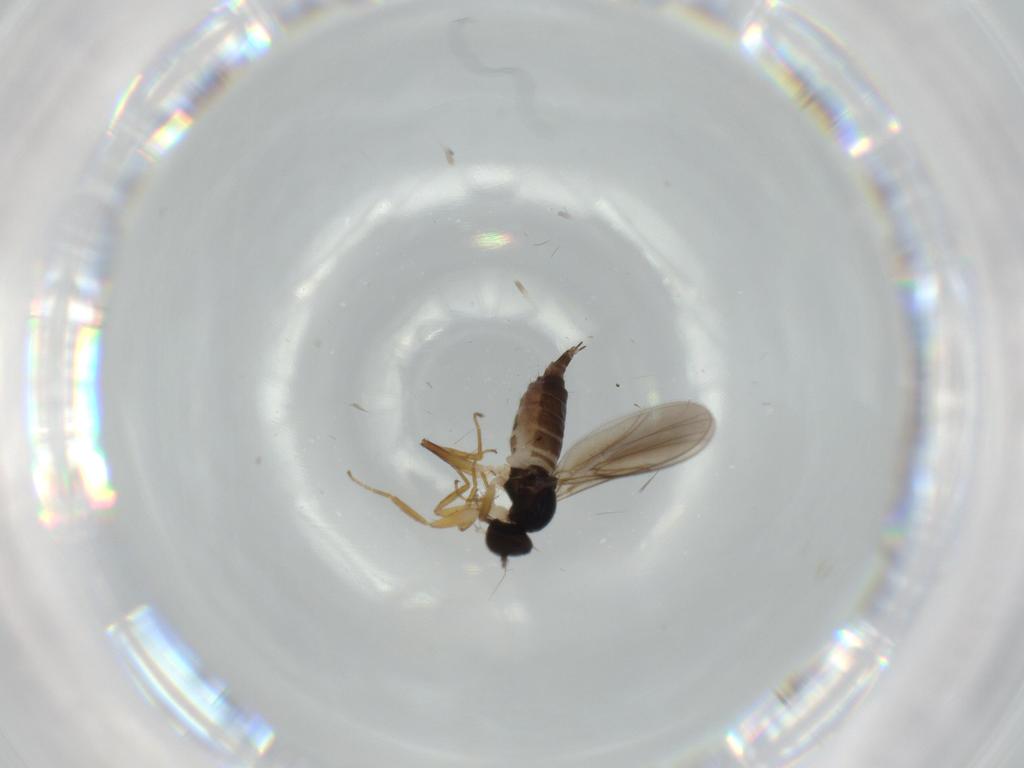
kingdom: Animalia
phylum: Arthropoda
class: Insecta
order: Diptera
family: Hybotidae
